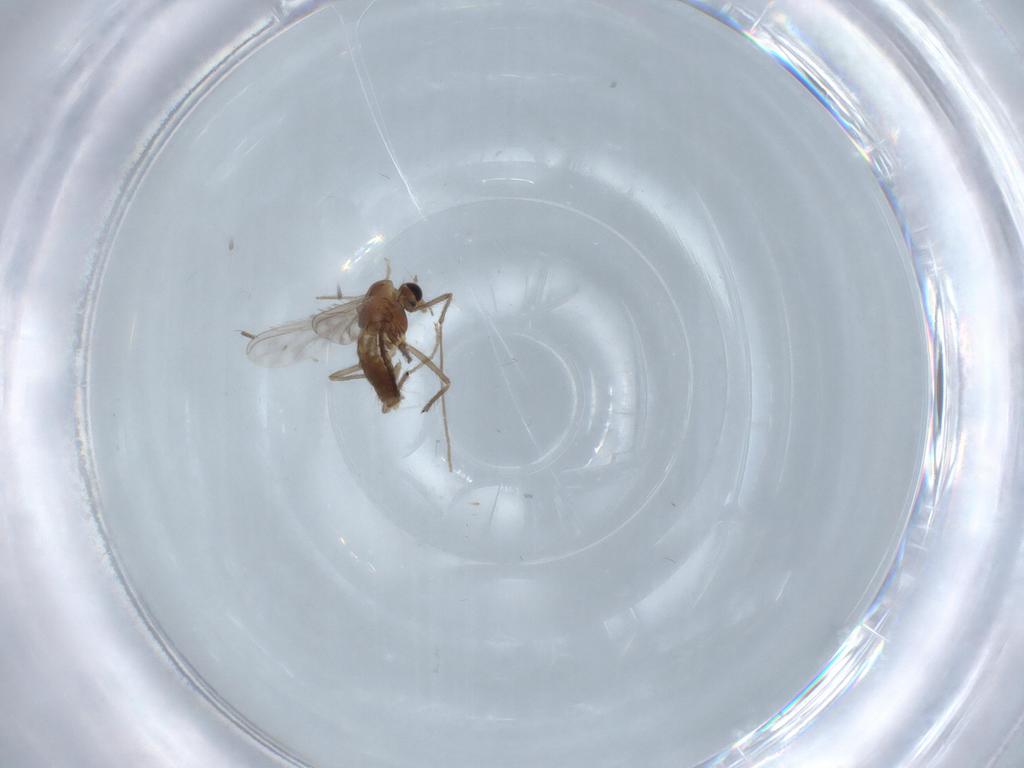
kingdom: Animalia
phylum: Arthropoda
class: Insecta
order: Diptera
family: Chironomidae
